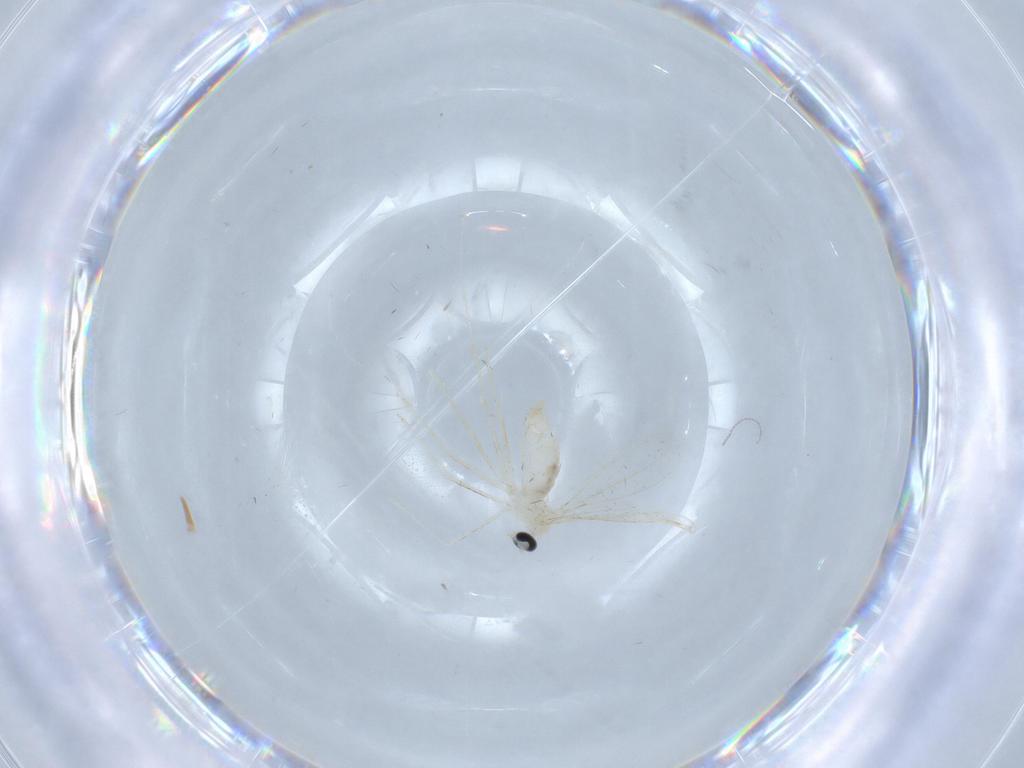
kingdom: Animalia
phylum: Arthropoda
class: Insecta
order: Diptera
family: Cecidomyiidae
